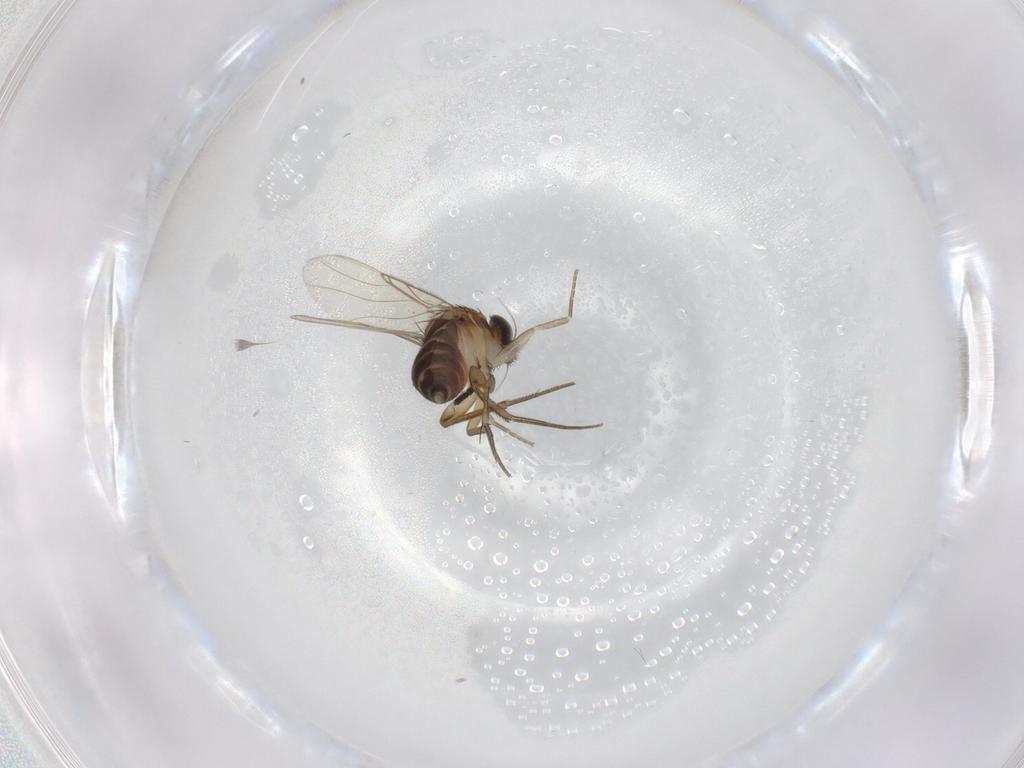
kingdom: Animalia
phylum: Arthropoda
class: Insecta
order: Diptera
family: Phoridae
